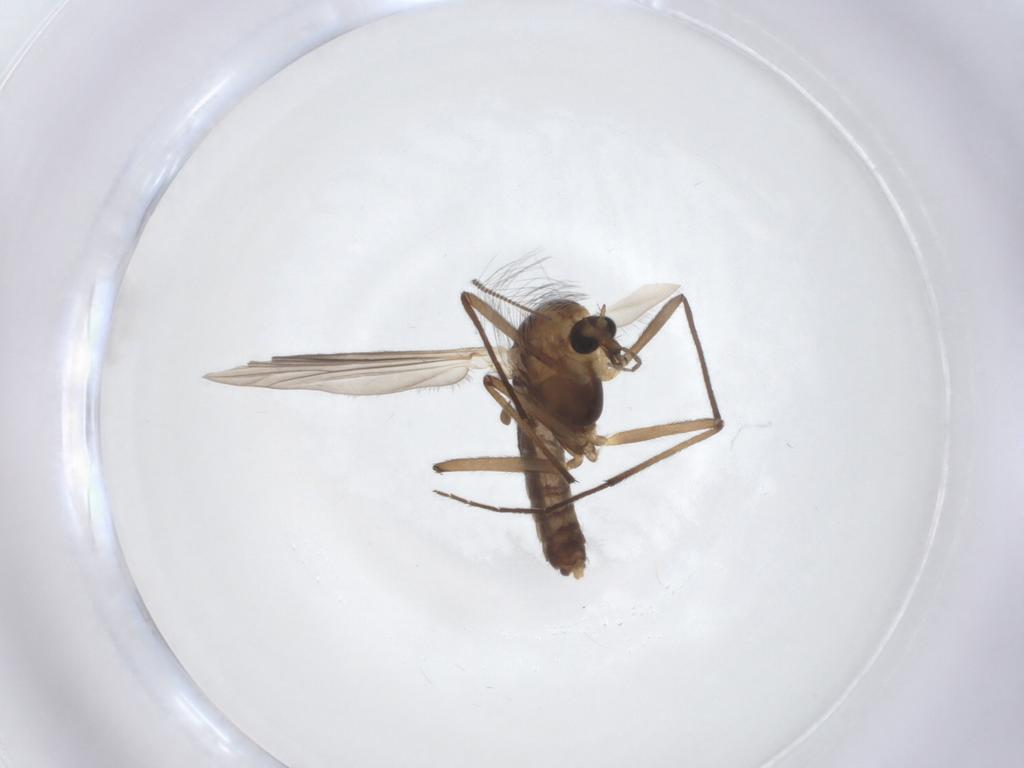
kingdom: Animalia
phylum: Arthropoda
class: Insecta
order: Diptera
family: Chironomidae
